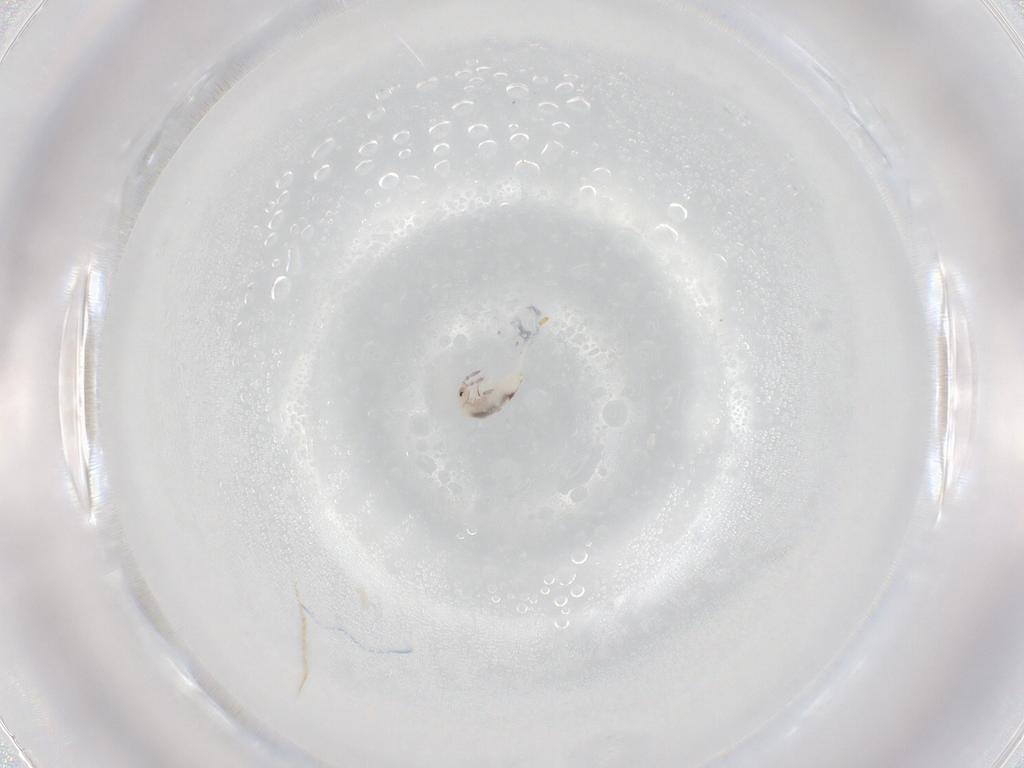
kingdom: Animalia
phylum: Arthropoda
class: Collembola
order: Entomobryomorpha
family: Entomobryidae
